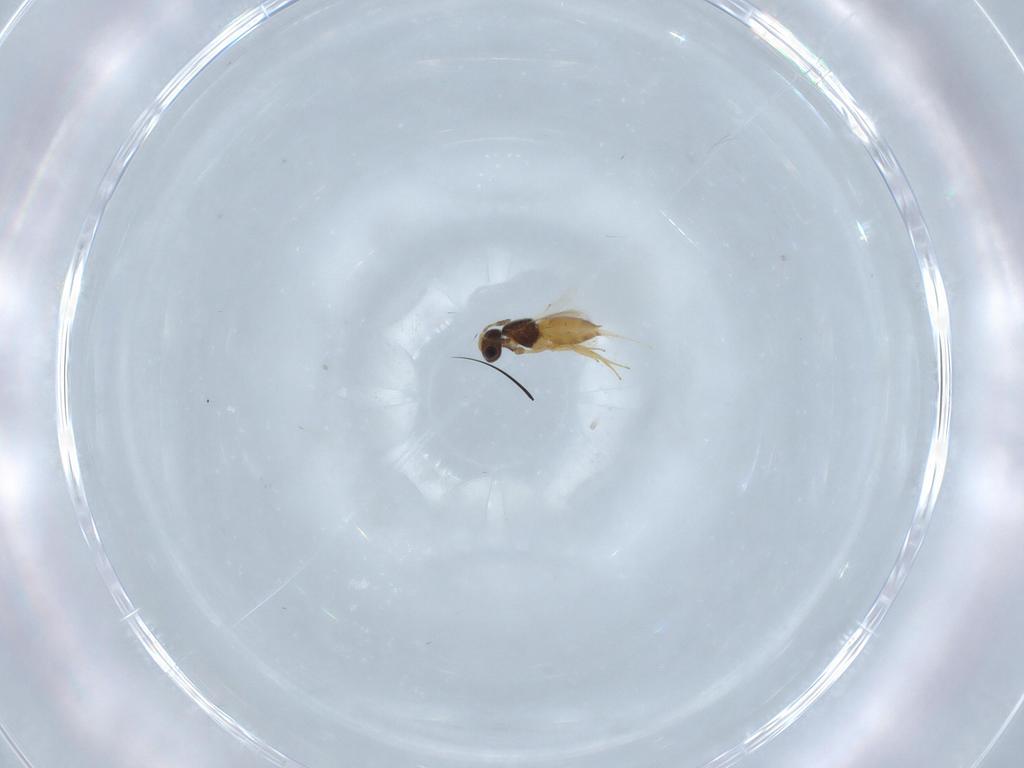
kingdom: Animalia
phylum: Arthropoda
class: Insecta
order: Hymenoptera
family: Scelionidae
